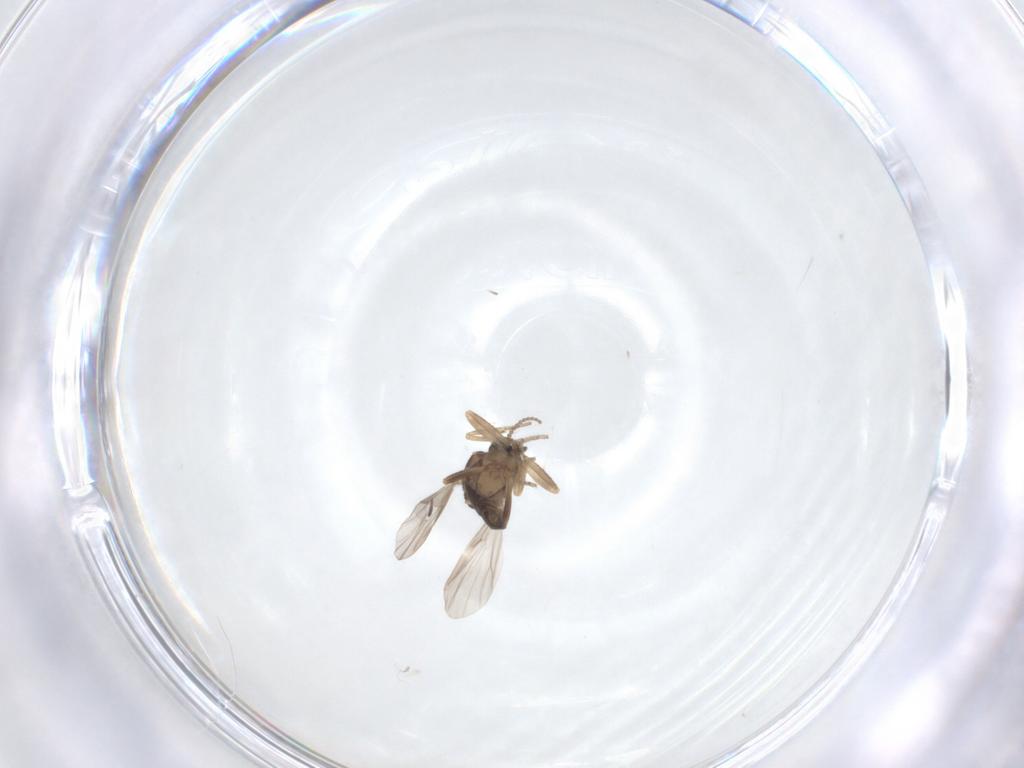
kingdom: Animalia
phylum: Arthropoda
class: Insecta
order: Diptera
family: Ceratopogonidae
